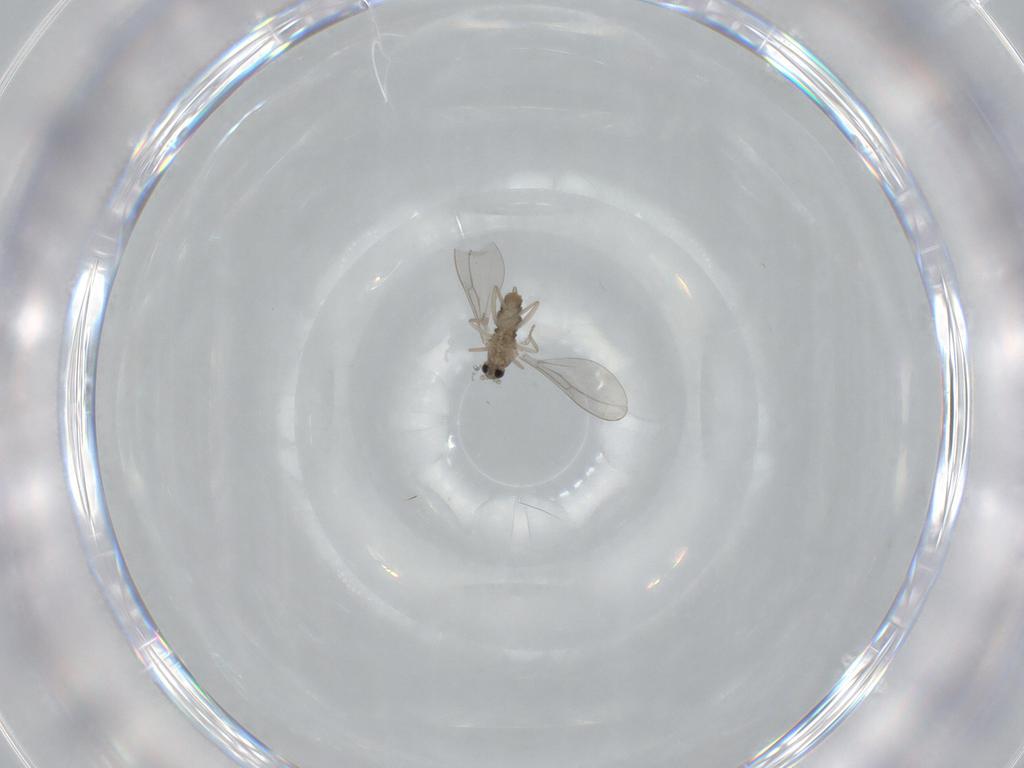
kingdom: Animalia
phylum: Arthropoda
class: Insecta
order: Diptera
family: Cecidomyiidae
